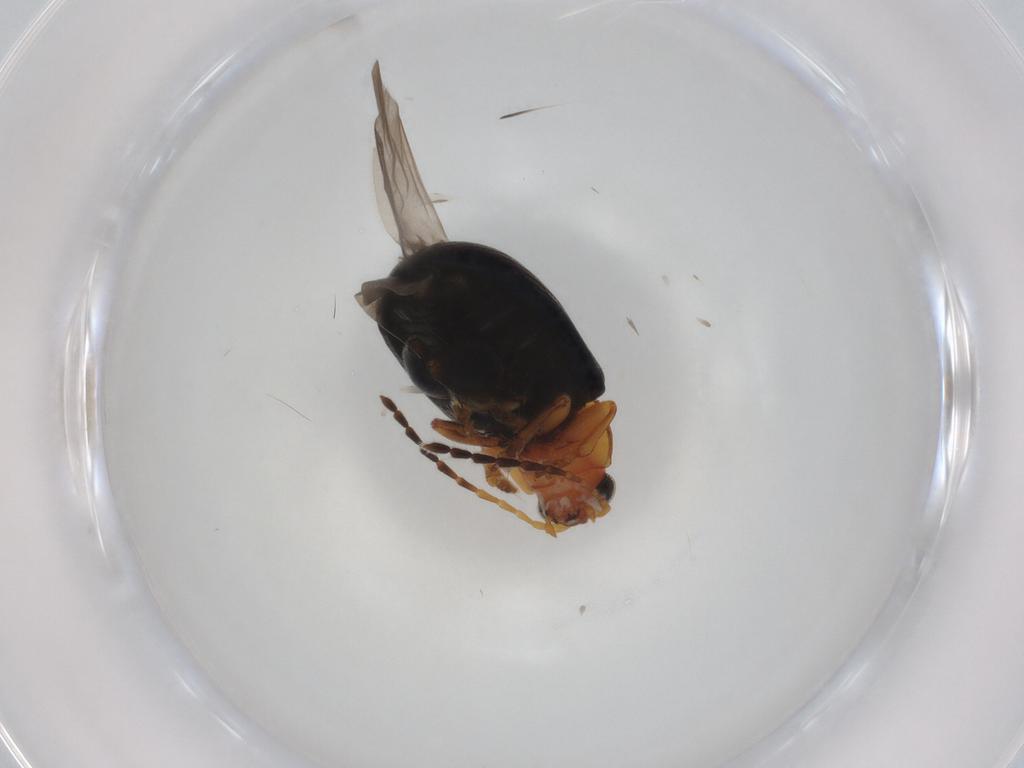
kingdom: Animalia
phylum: Arthropoda
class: Insecta
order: Coleoptera
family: Chrysomelidae
